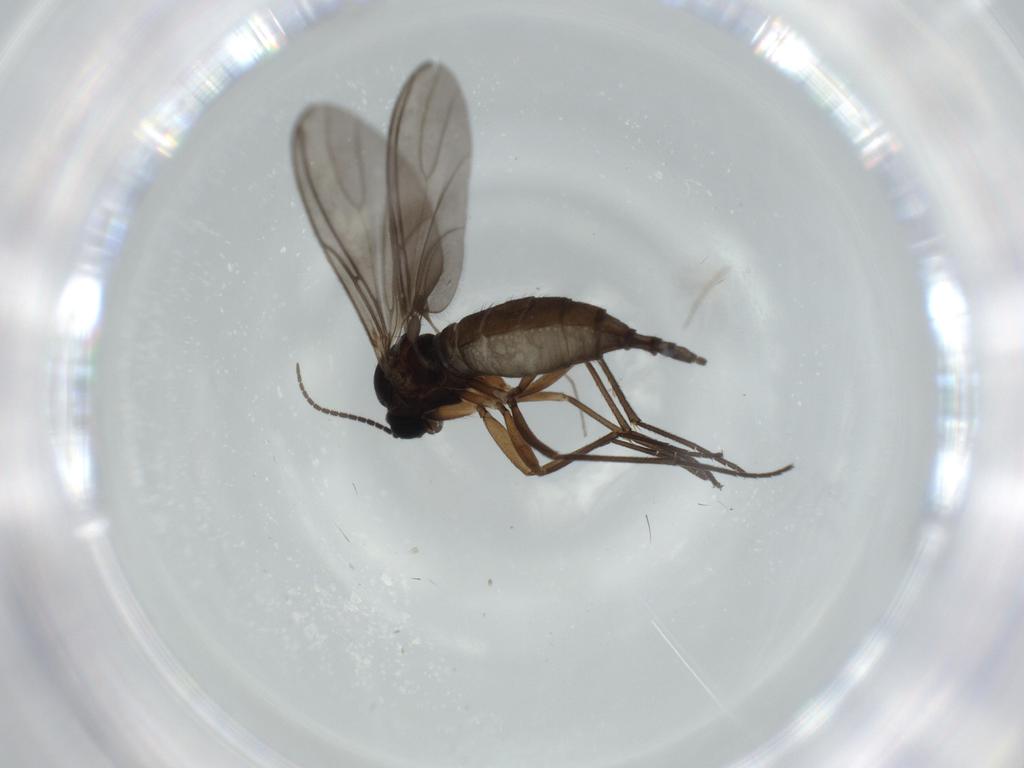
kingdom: Animalia
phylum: Arthropoda
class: Insecta
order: Diptera
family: Sciaridae
